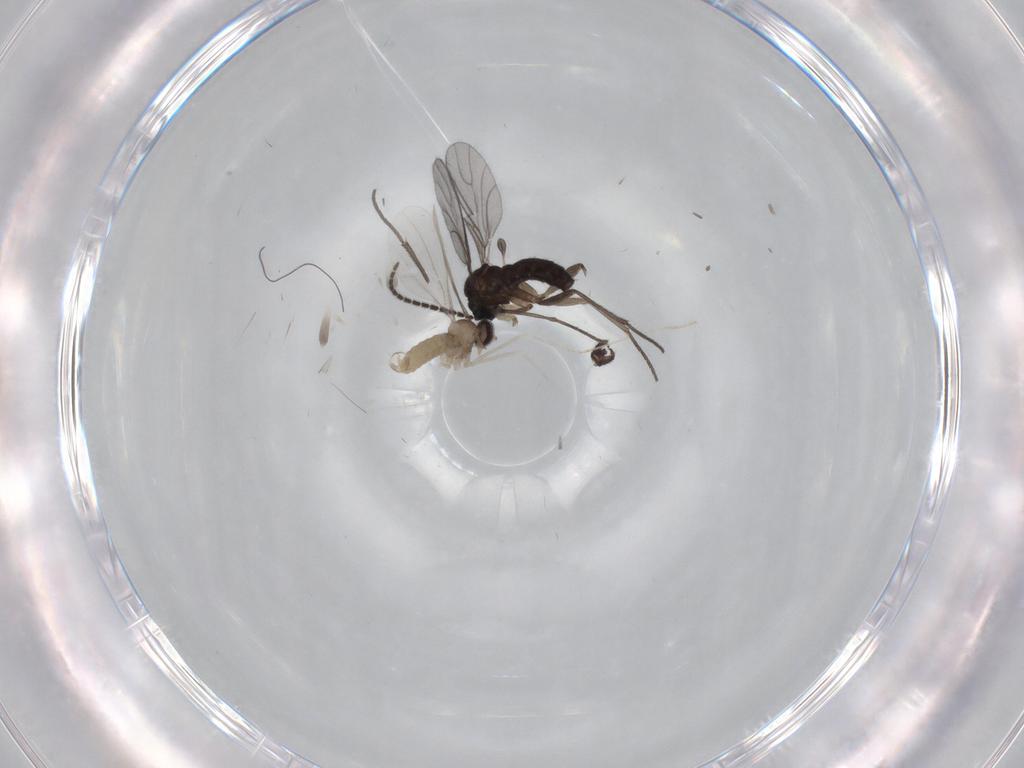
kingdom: Animalia
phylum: Arthropoda
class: Insecta
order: Diptera
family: Cecidomyiidae
